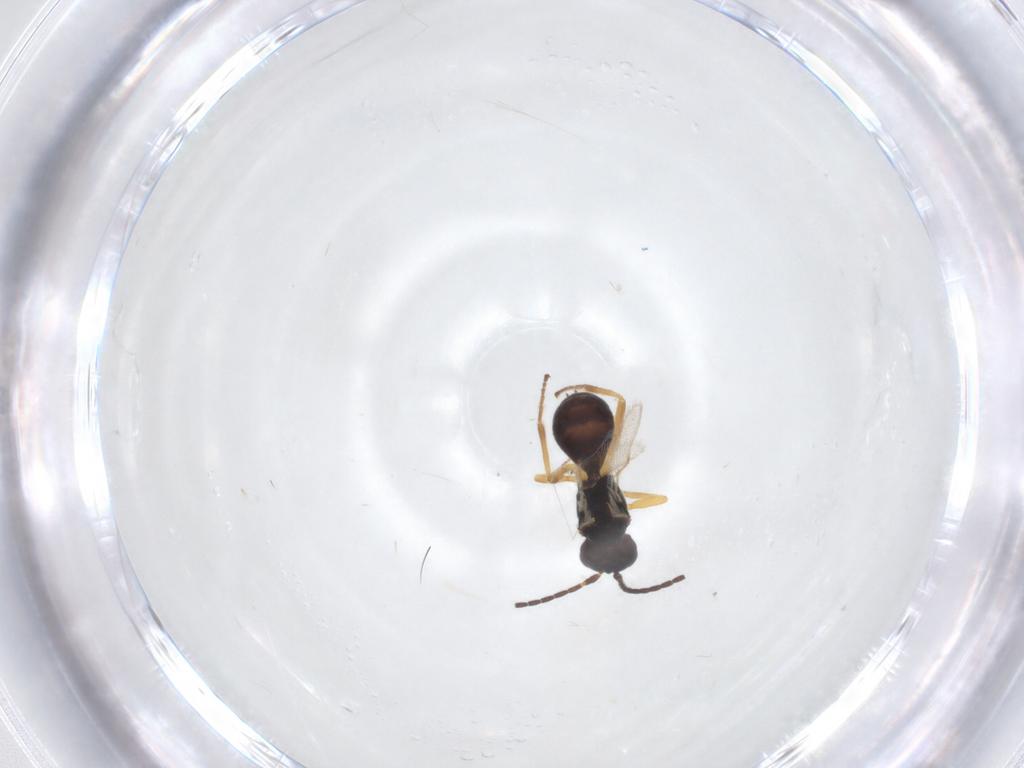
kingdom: Animalia
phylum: Arthropoda
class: Insecta
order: Hymenoptera
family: Braconidae
